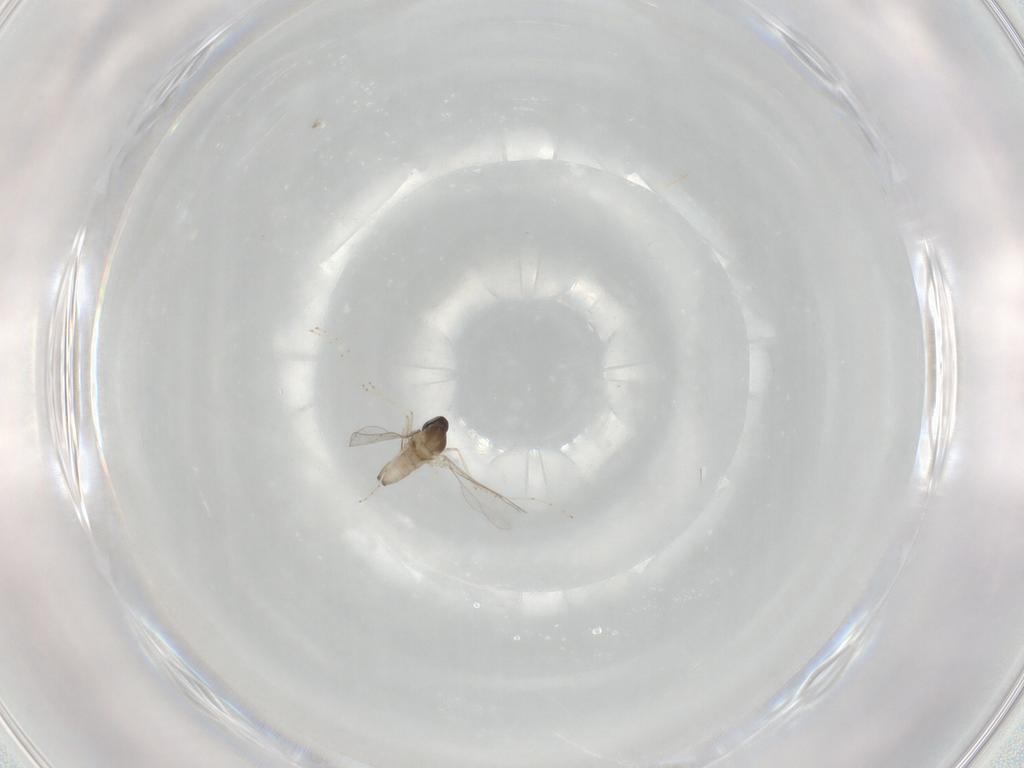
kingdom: Animalia
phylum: Arthropoda
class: Insecta
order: Diptera
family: Cecidomyiidae
